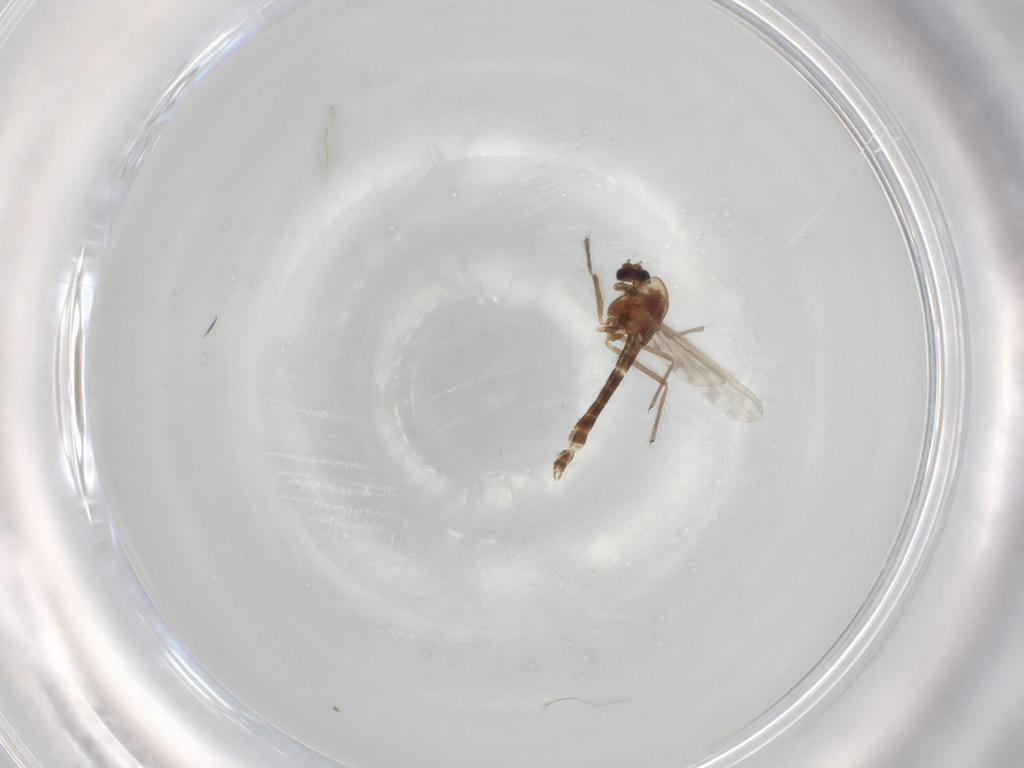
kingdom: Animalia
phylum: Arthropoda
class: Insecta
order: Diptera
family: Chironomidae
